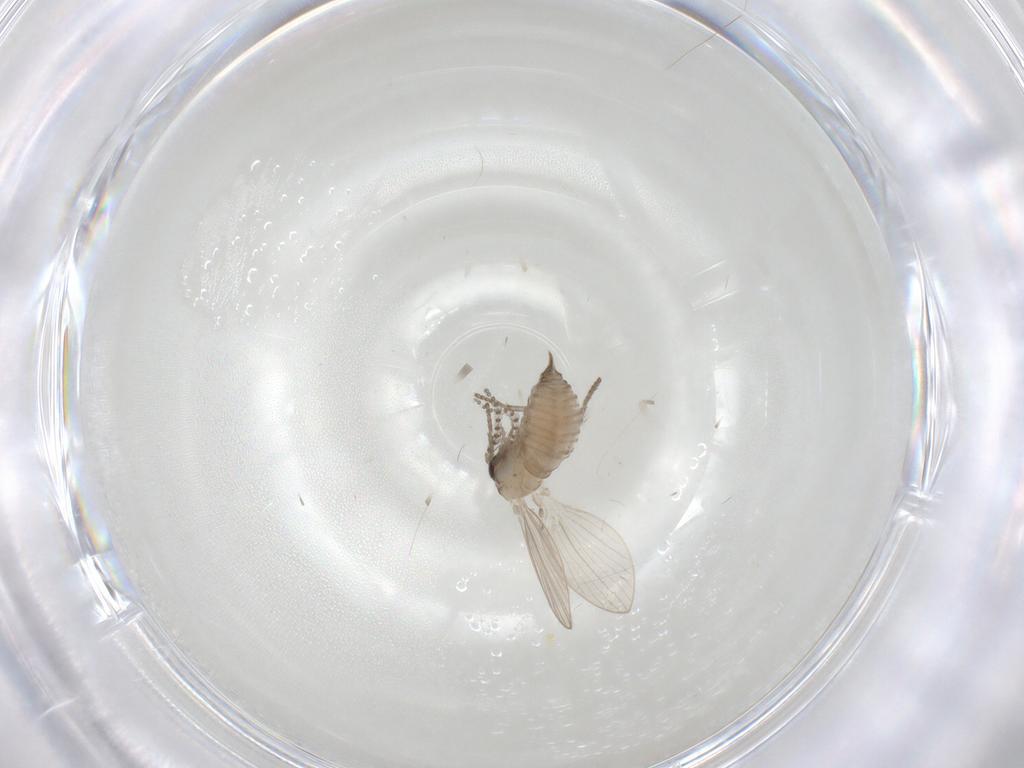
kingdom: Animalia
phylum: Arthropoda
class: Insecta
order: Diptera
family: Psychodidae
